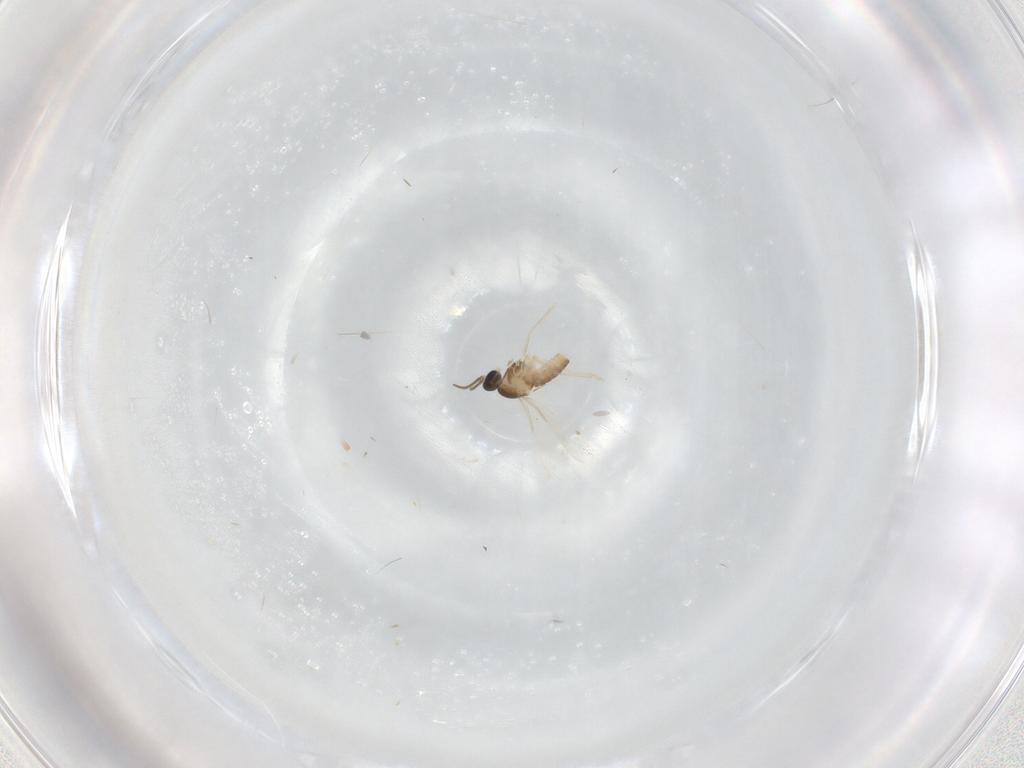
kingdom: Animalia
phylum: Arthropoda
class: Insecta
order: Diptera
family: Cecidomyiidae
